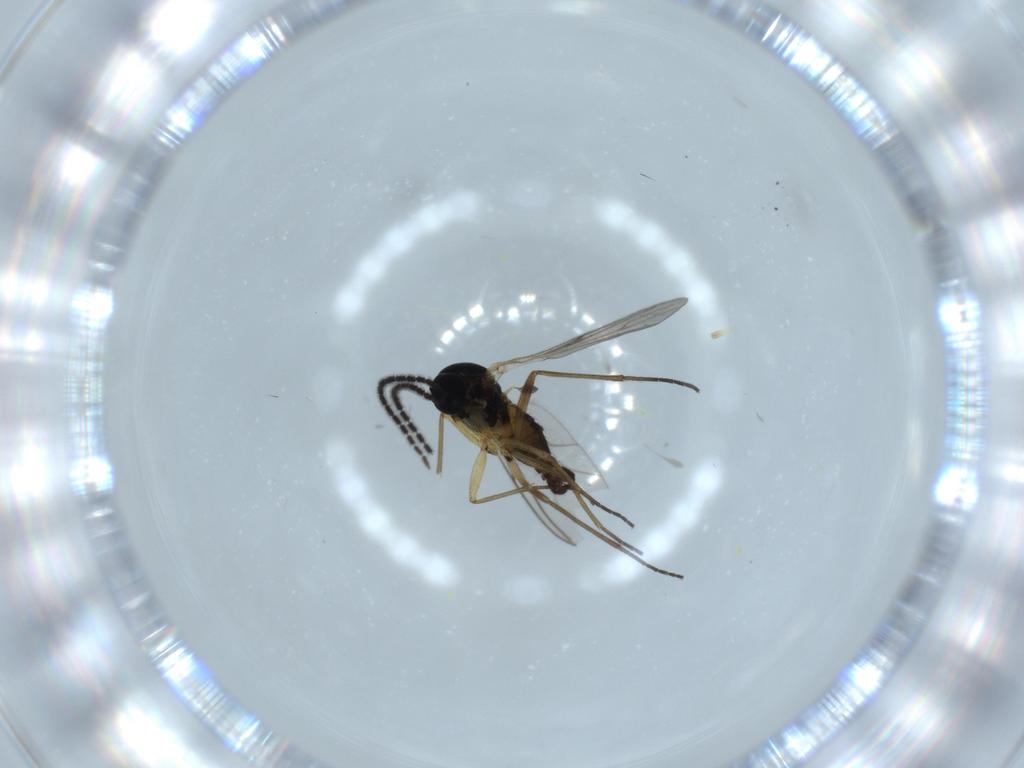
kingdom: Animalia
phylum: Arthropoda
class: Insecta
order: Diptera
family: Sciaridae
